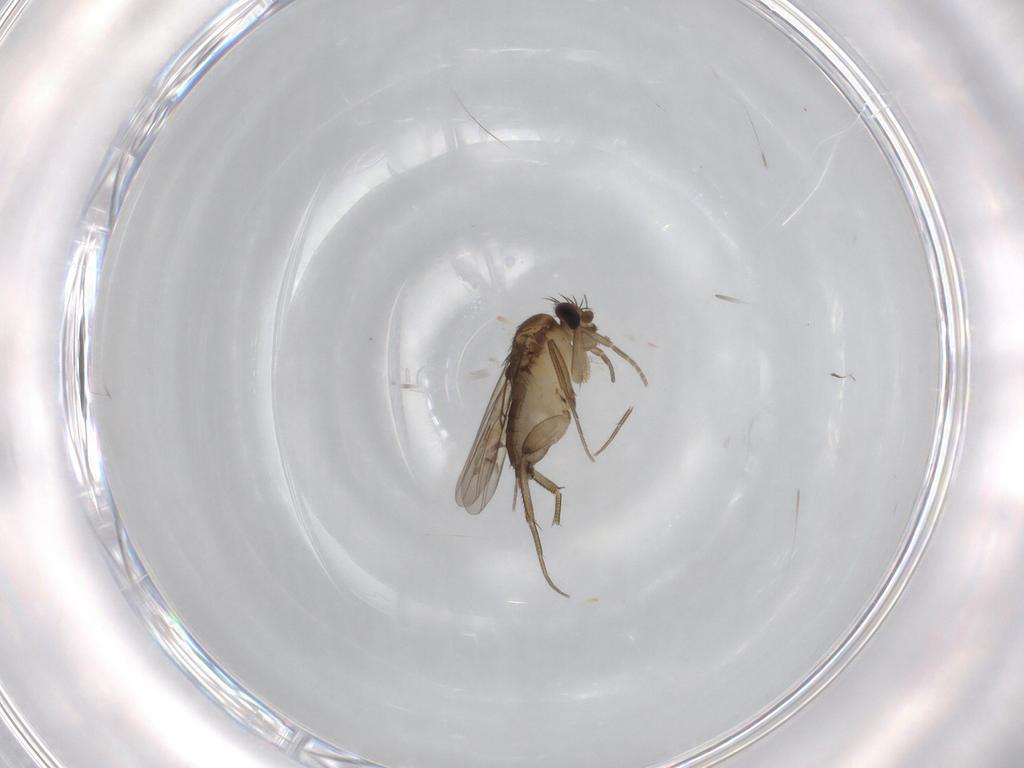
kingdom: Animalia
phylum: Arthropoda
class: Insecta
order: Diptera
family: Phoridae
